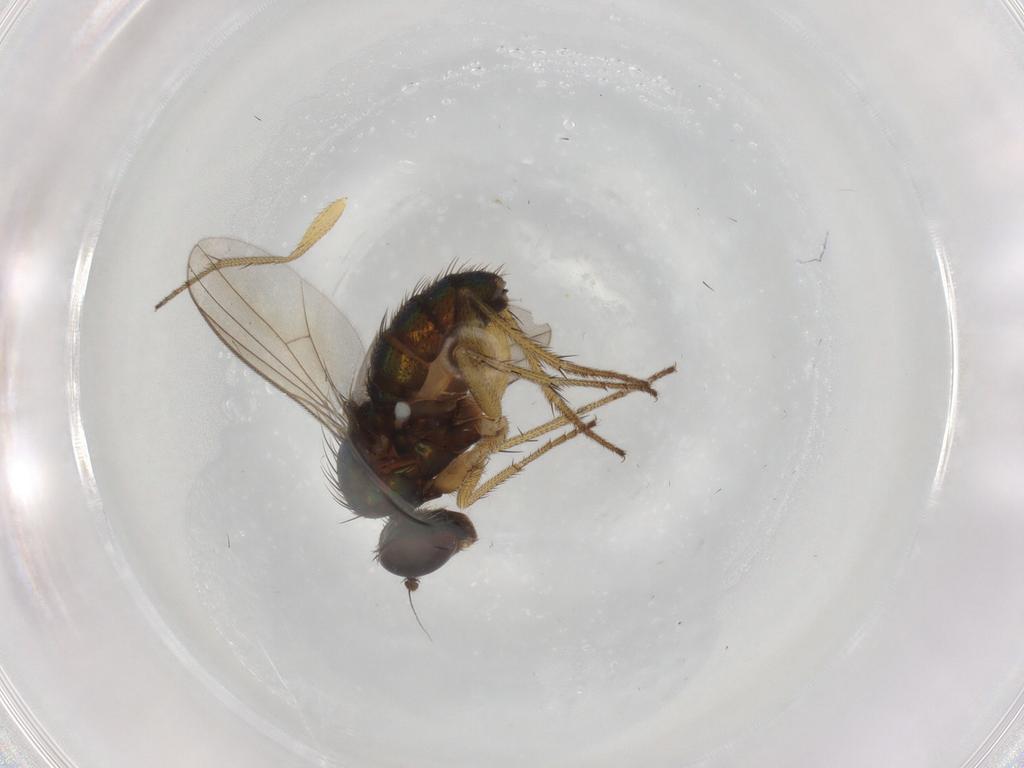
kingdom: Animalia
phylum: Arthropoda
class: Insecta
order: Diptera
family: Dolichopodidae
